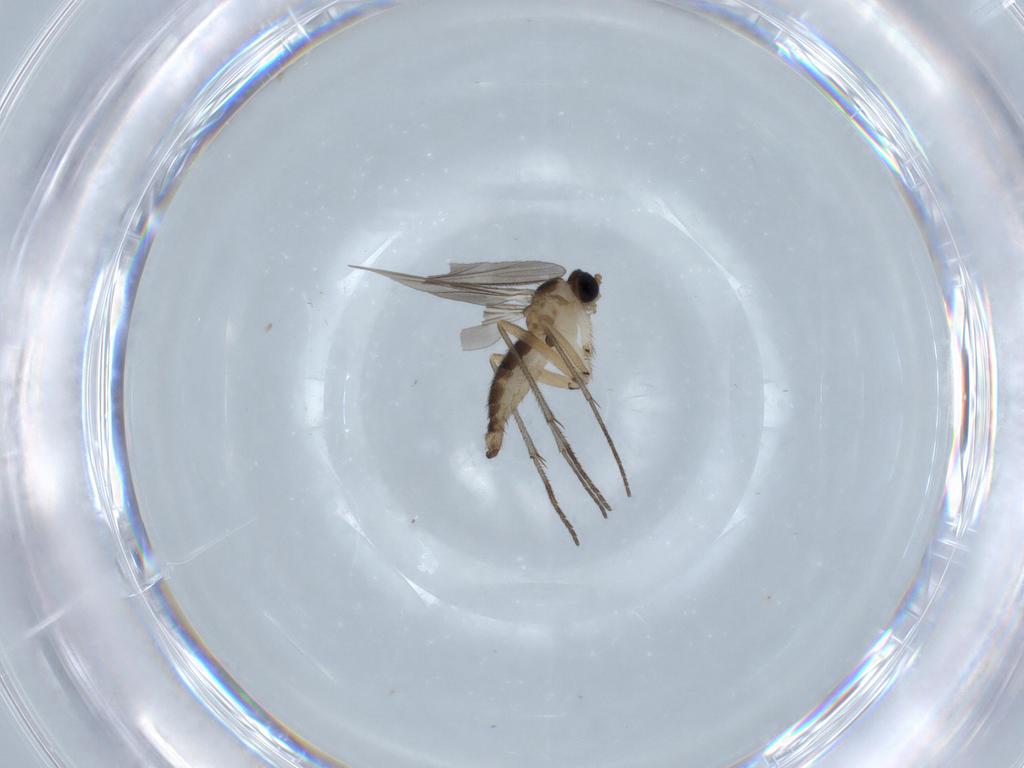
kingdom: Animalia
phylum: Arthropoda
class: Insecta
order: Diptera
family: Sciaridae
